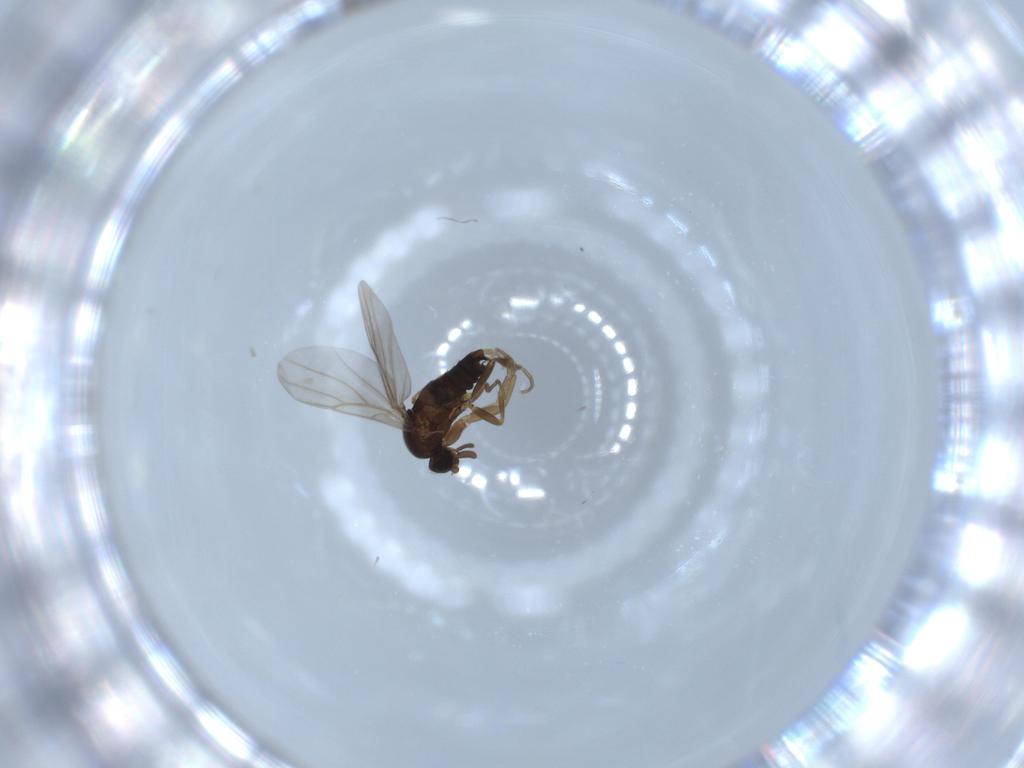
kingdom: Animalia
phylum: Arthropoda
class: Insecta
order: Diptera
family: Phoridae
